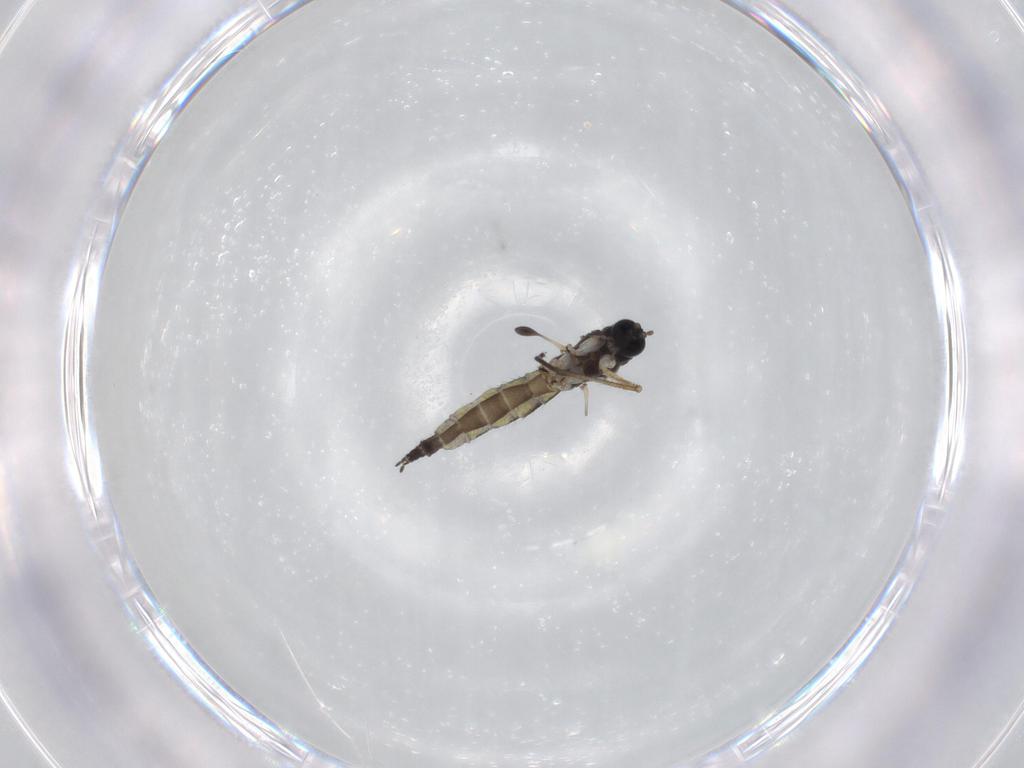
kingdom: Animalia
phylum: Arthropoda
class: Insecta
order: Diptera
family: Sciaridae
